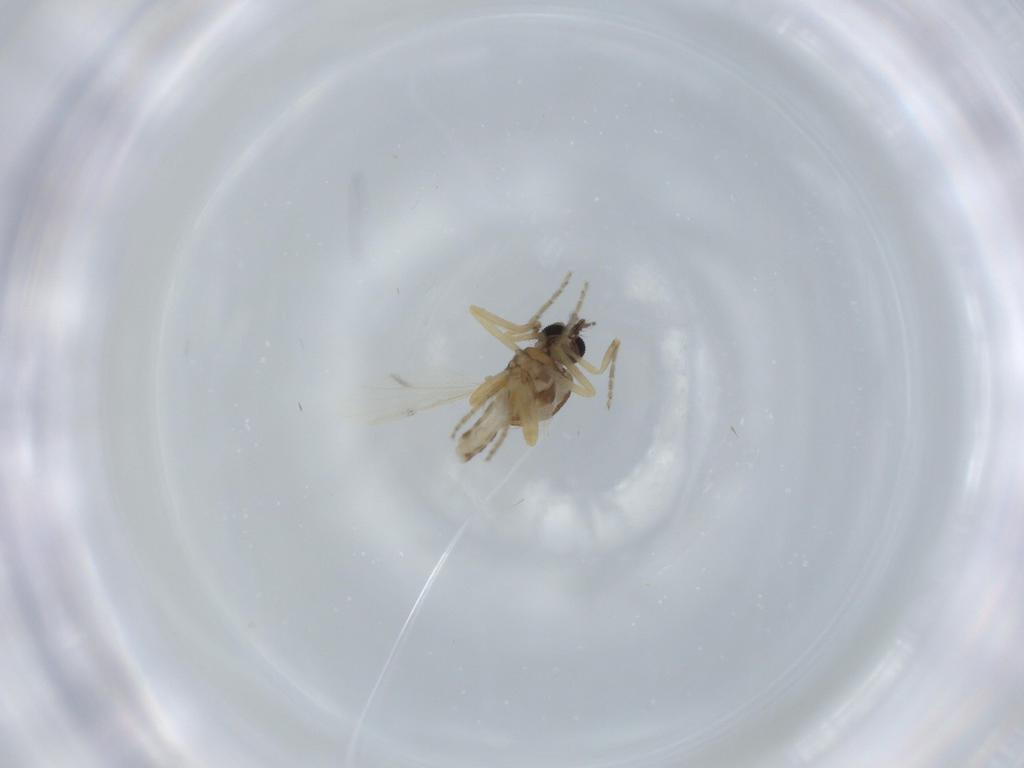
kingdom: Animalia
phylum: Arthropoda
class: Insecta
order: Diptera
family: Ceratopogonidae
